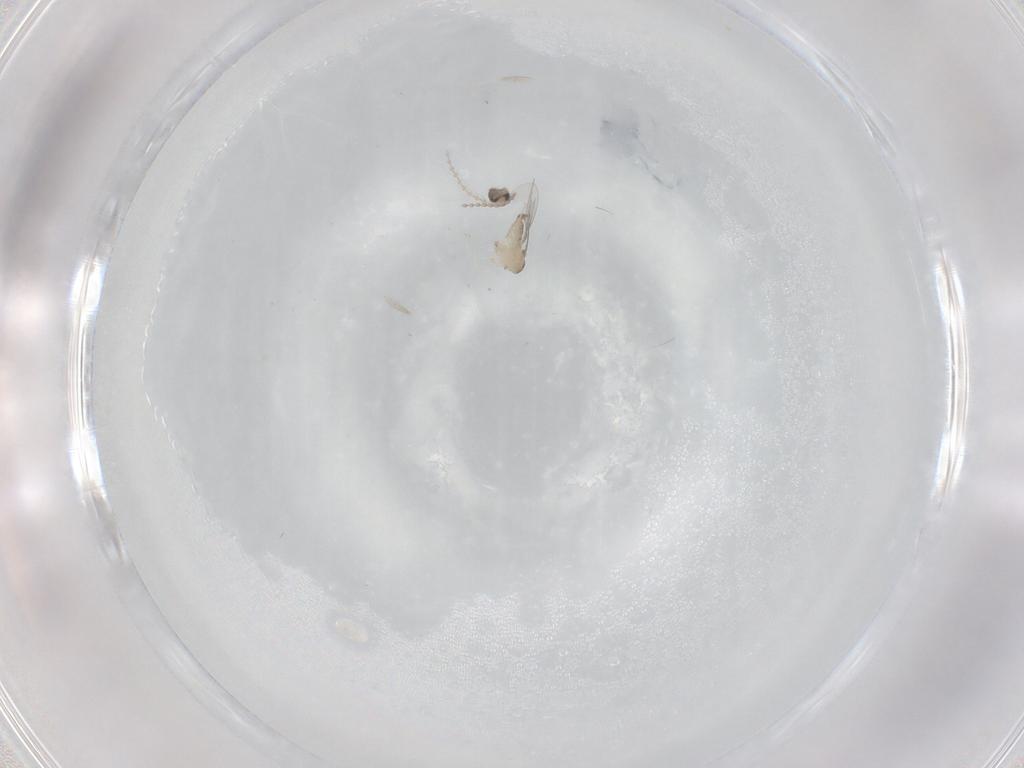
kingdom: Animalia
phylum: Arthropoda
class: Insecta
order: Diptera
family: Cecidomyiidae
